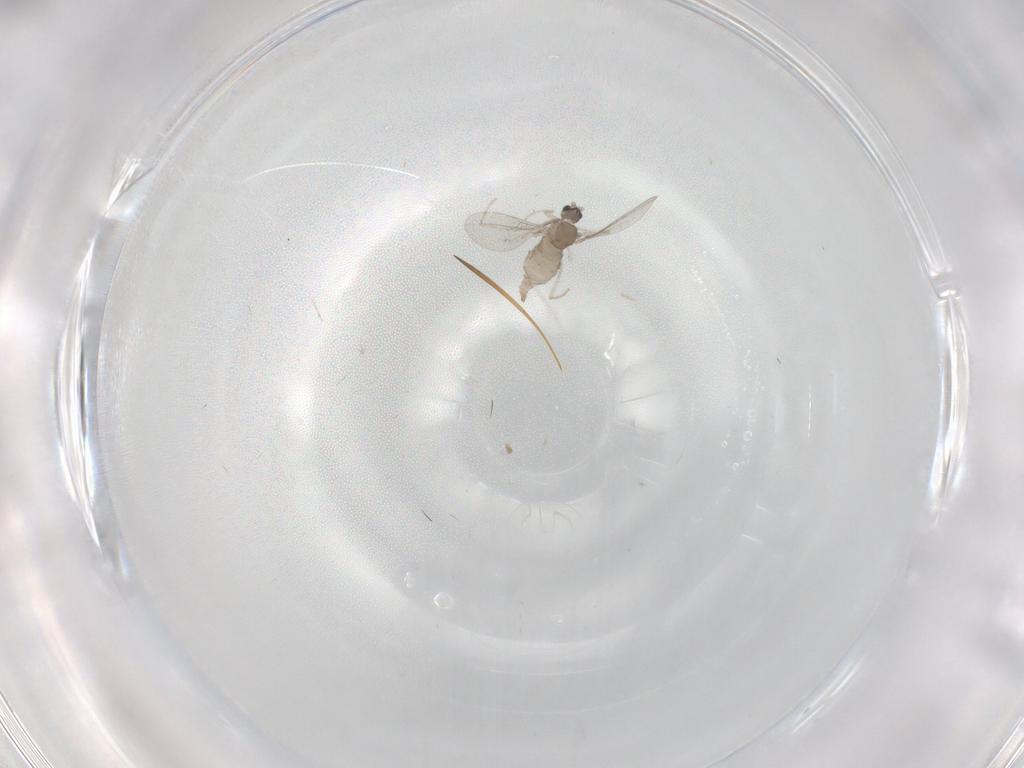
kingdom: Animalia
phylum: Arthropoda
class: Insecta
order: Diptera
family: Cecidomyiidae
